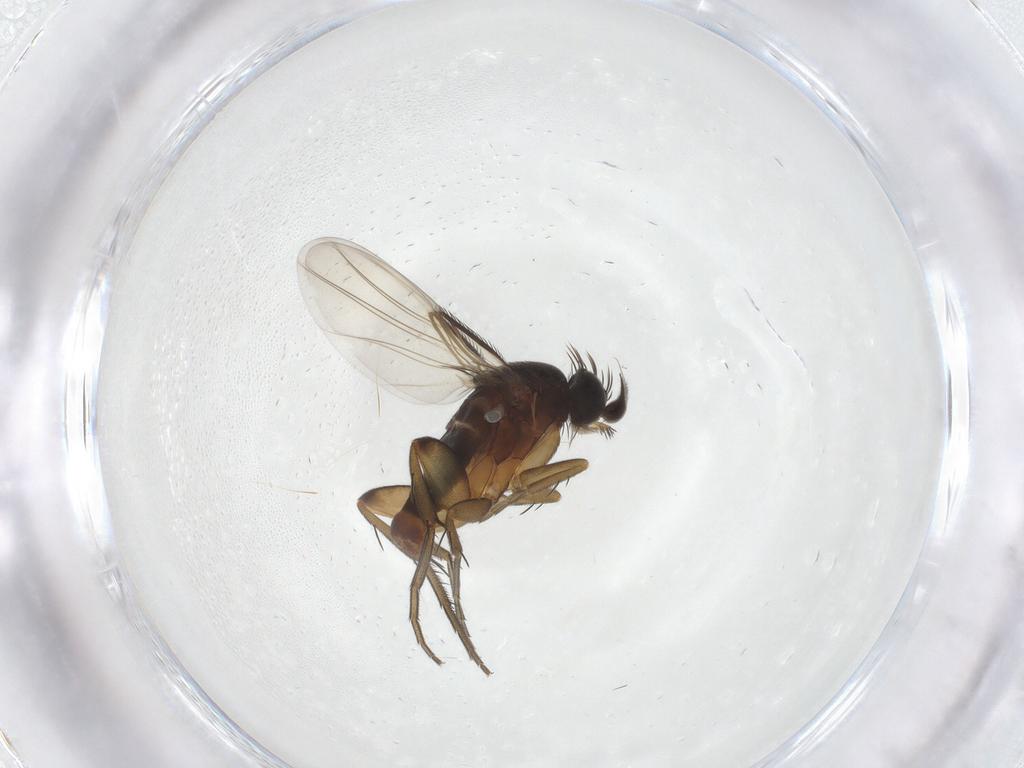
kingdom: Animalia
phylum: Arthropoda
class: Insecta
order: Diptera
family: Phoridae
